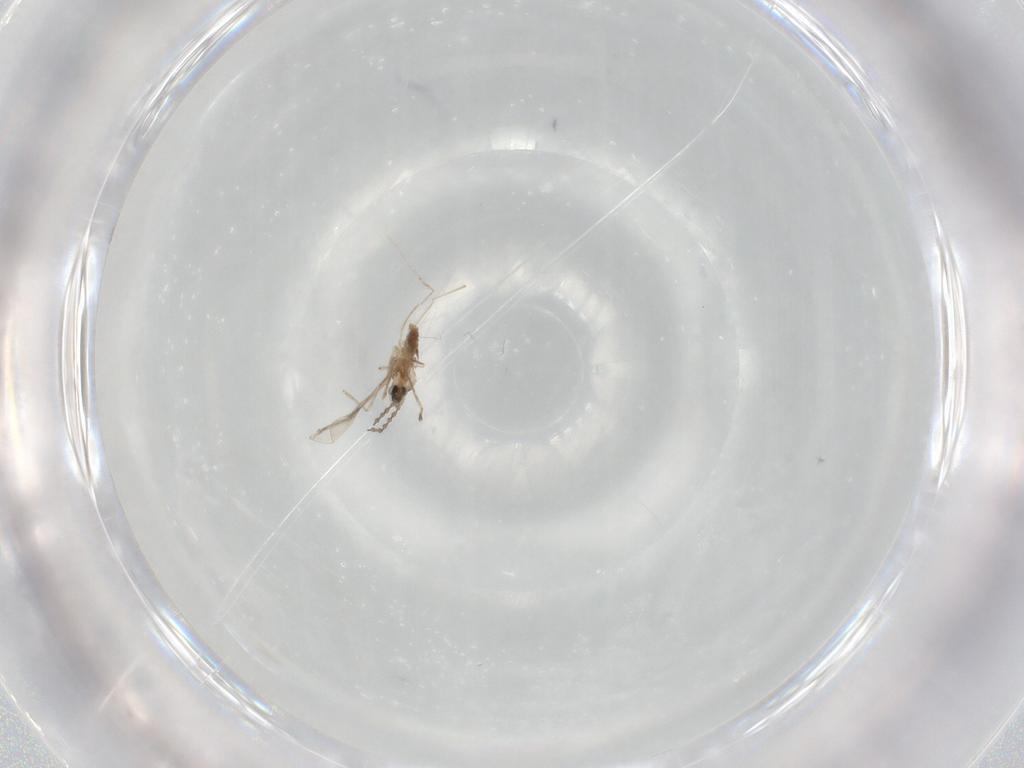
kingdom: Animalia
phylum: Arthropoda
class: Insecta
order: Diptera
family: Cecidomyiidae
